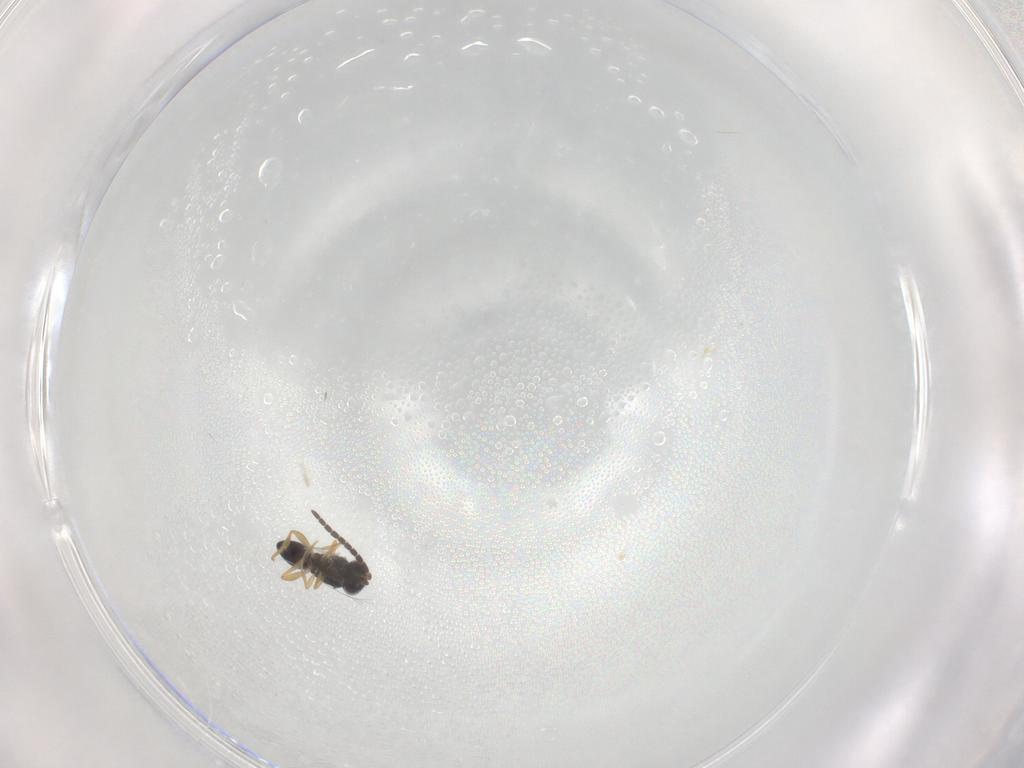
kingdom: Animalia
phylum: Arthropoda
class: Insecta
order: Hymenoptera
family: Ceraphronidae
